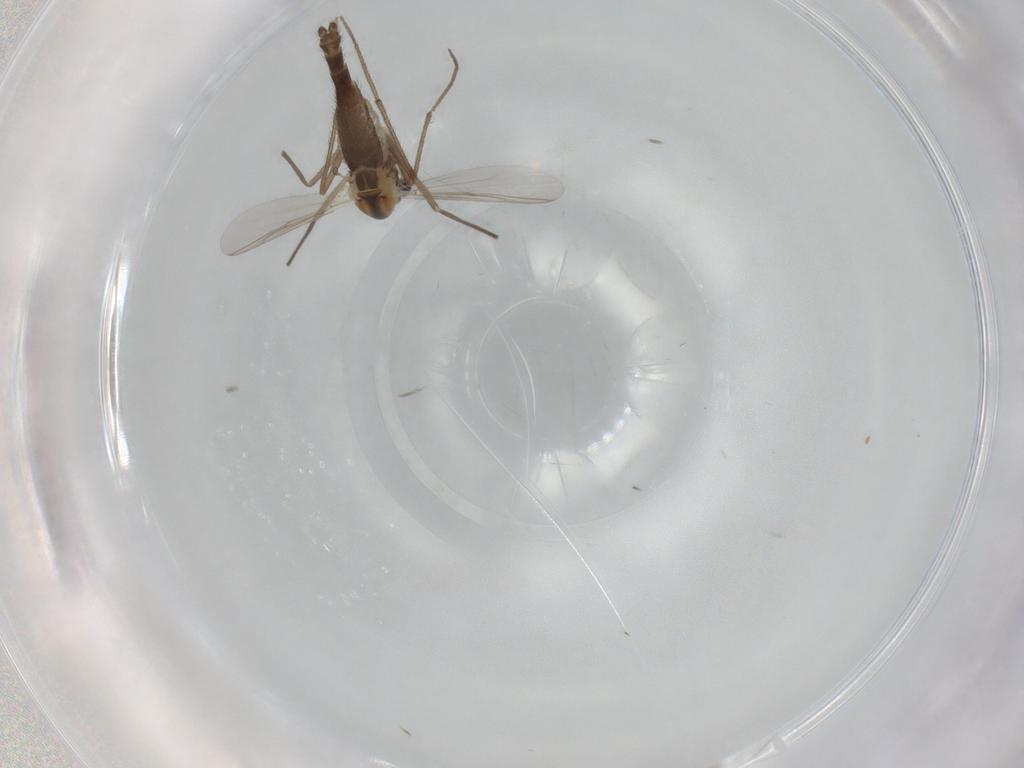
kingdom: Animalia
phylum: Arthropoda
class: Insecta
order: Diptera
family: Chironomidae
